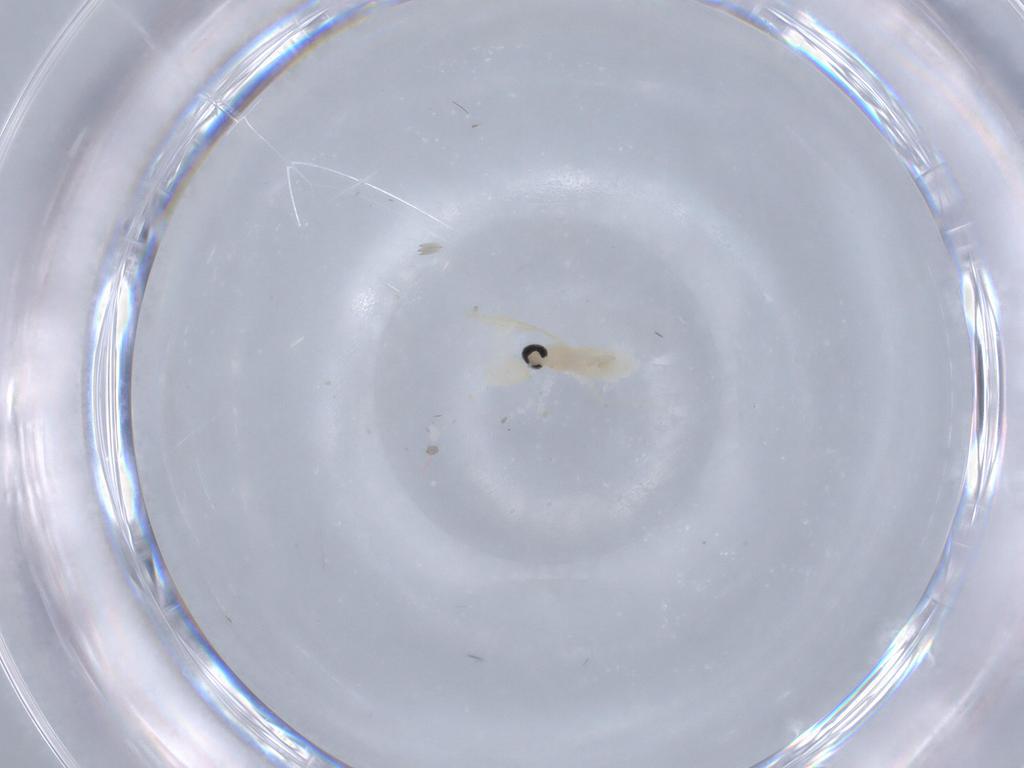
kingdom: Animalia
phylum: Arthropoda
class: Insecta
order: Diptera
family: Cecidomyiidae
